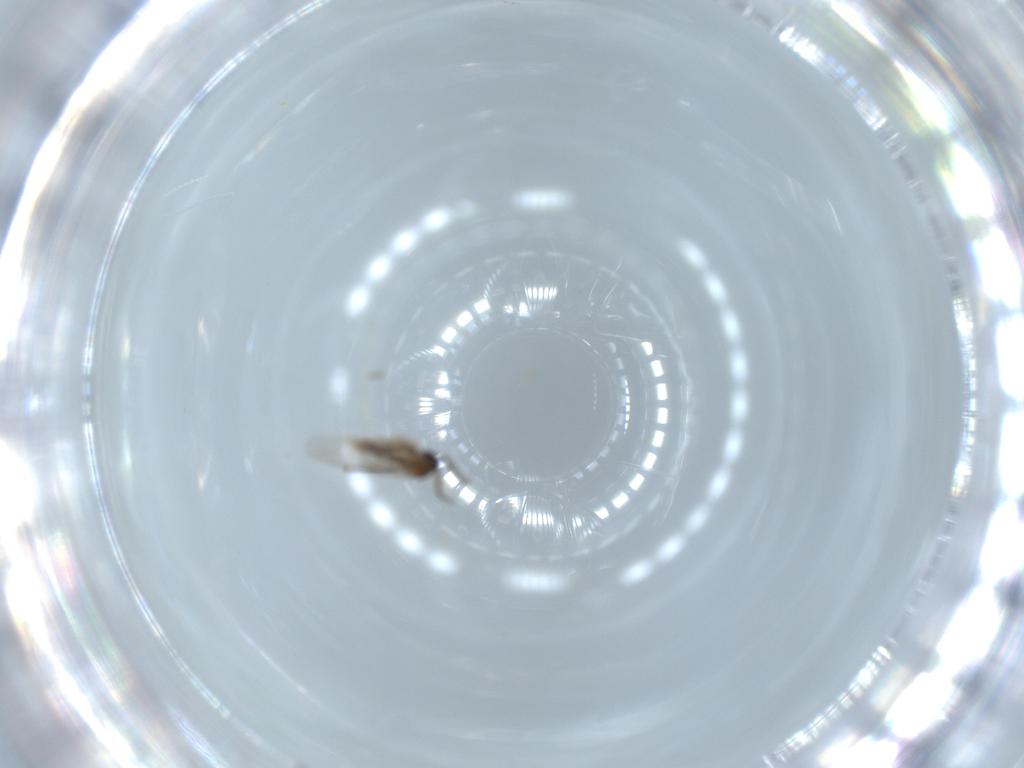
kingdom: Animalia
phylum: Arthropoda
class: Insecta
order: Diptera
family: Cecidomyiidae
